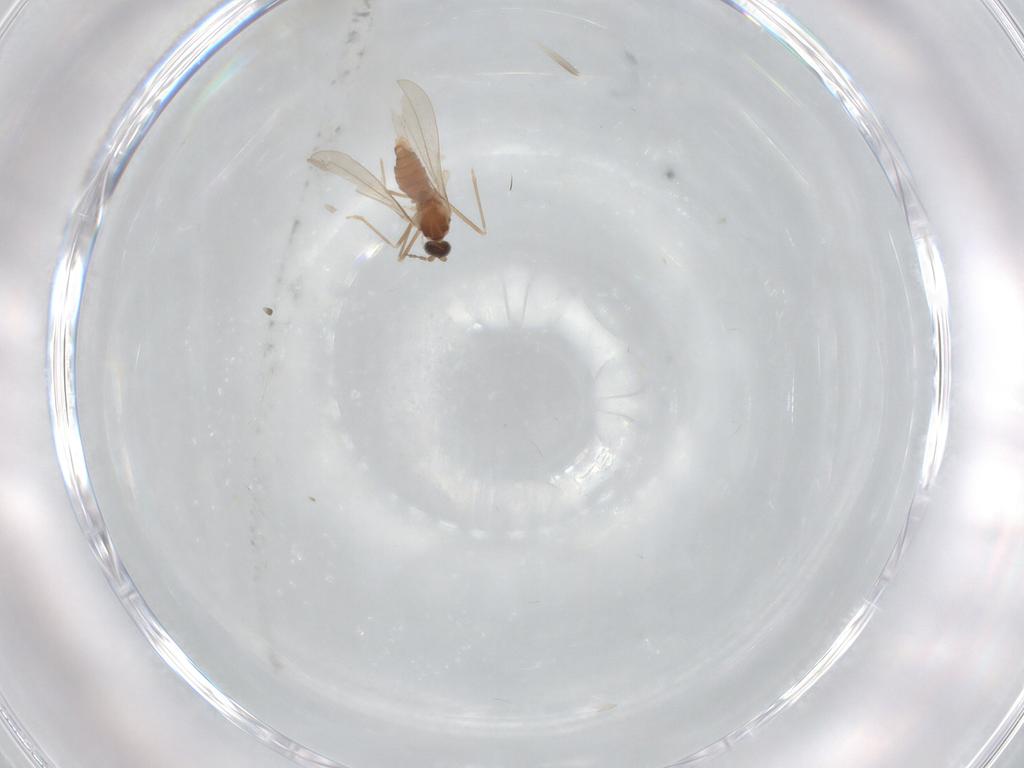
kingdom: Animalia
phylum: Arthropoda
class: Insecta
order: Diptera
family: Cecidomyiidae
